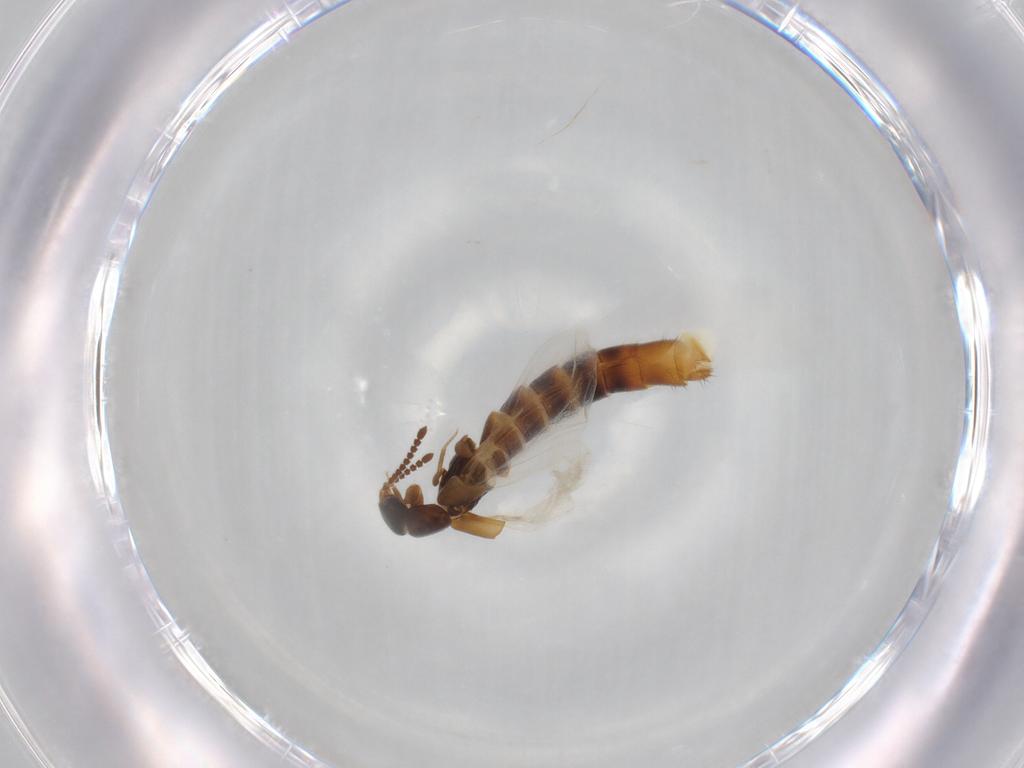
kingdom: Animalia
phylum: Arthropoda
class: Insecta
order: Coleoptera
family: Staphylinidae
